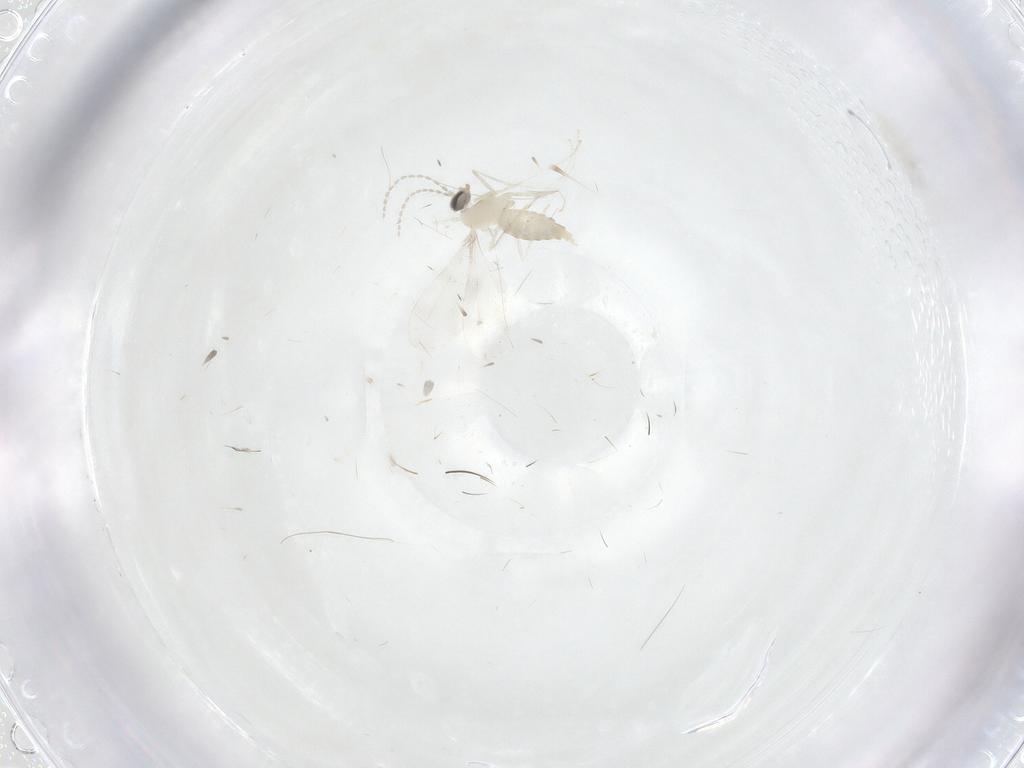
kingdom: Animalia
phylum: Arthropoda
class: Insecta
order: Diptera
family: Cecidomyiidae
